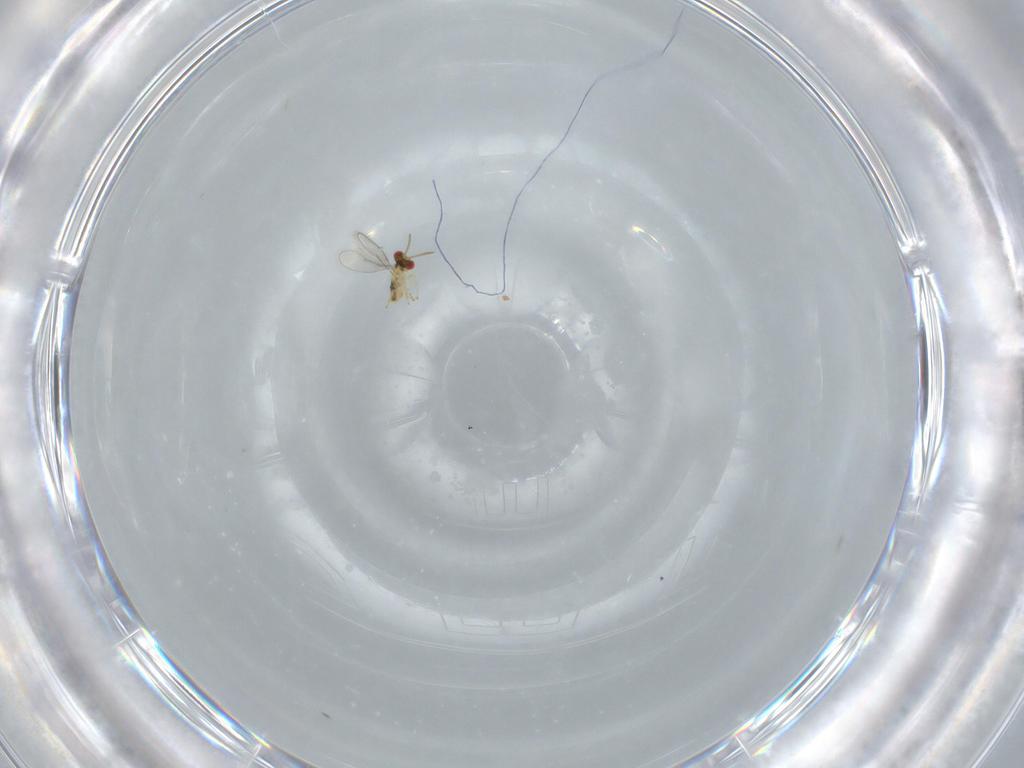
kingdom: Animalia
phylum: Arthropoda
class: Insecta
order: Hymenoptera
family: Aphelinidae
